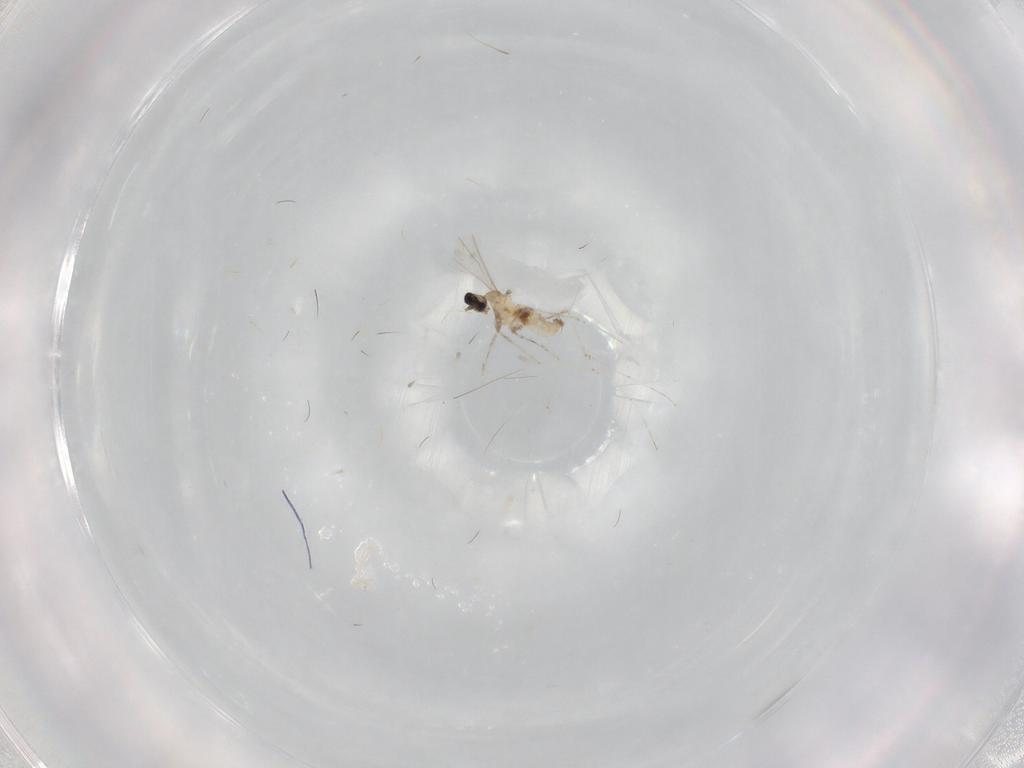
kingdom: Animalia
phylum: Arthropoda
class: Insecta
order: Diptera
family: Cecidomyiidae
